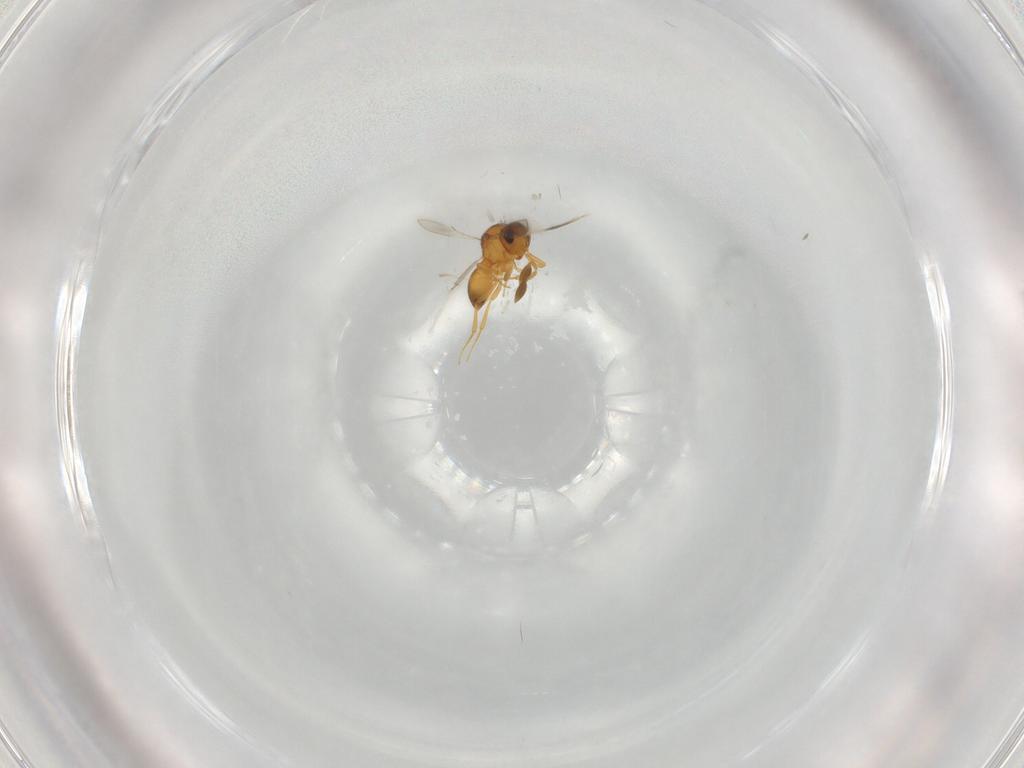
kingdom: Animalia
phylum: Arthropoda
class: Insecta
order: Hymenoptera
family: Scelionidae
